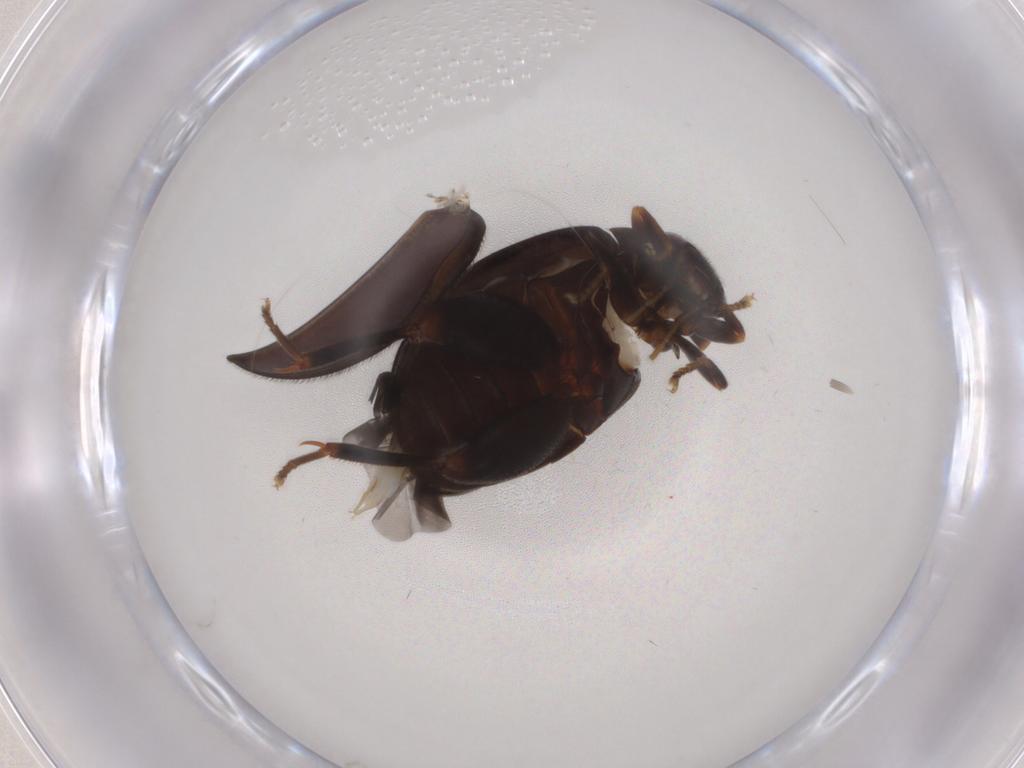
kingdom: Animalia
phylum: Arthropoda
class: Insecta
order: Coleoptera
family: Scirtidae
